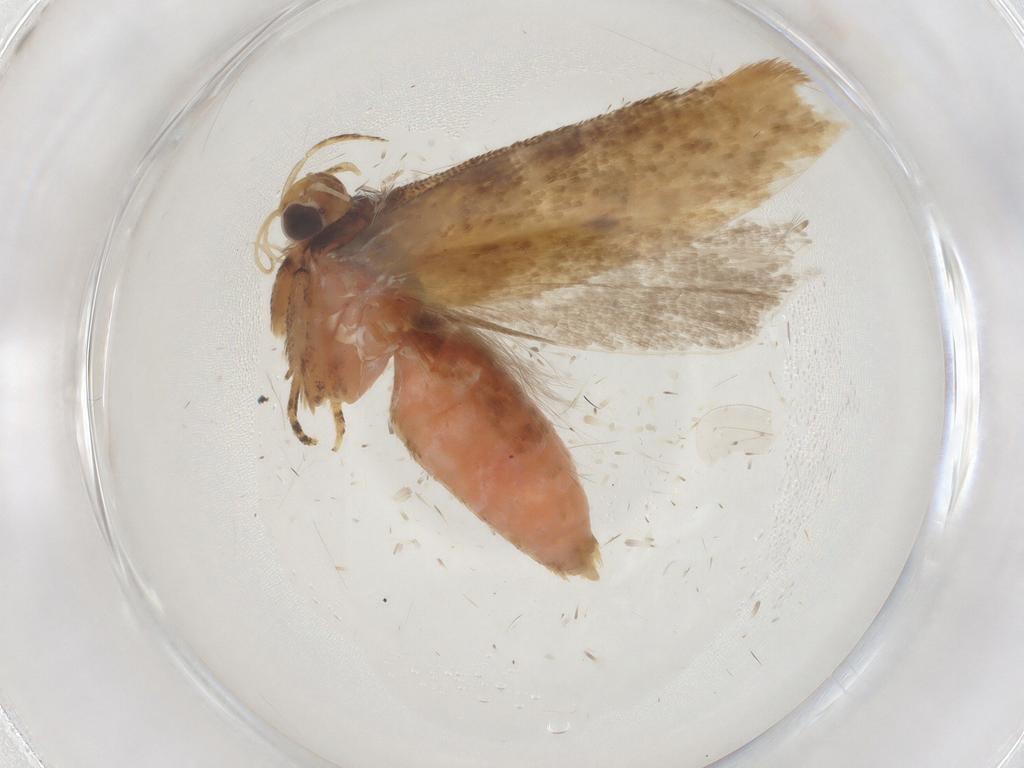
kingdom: Animalia
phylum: Arthropoda
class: Insecta
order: Lepidoptera
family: Gelechiidae
